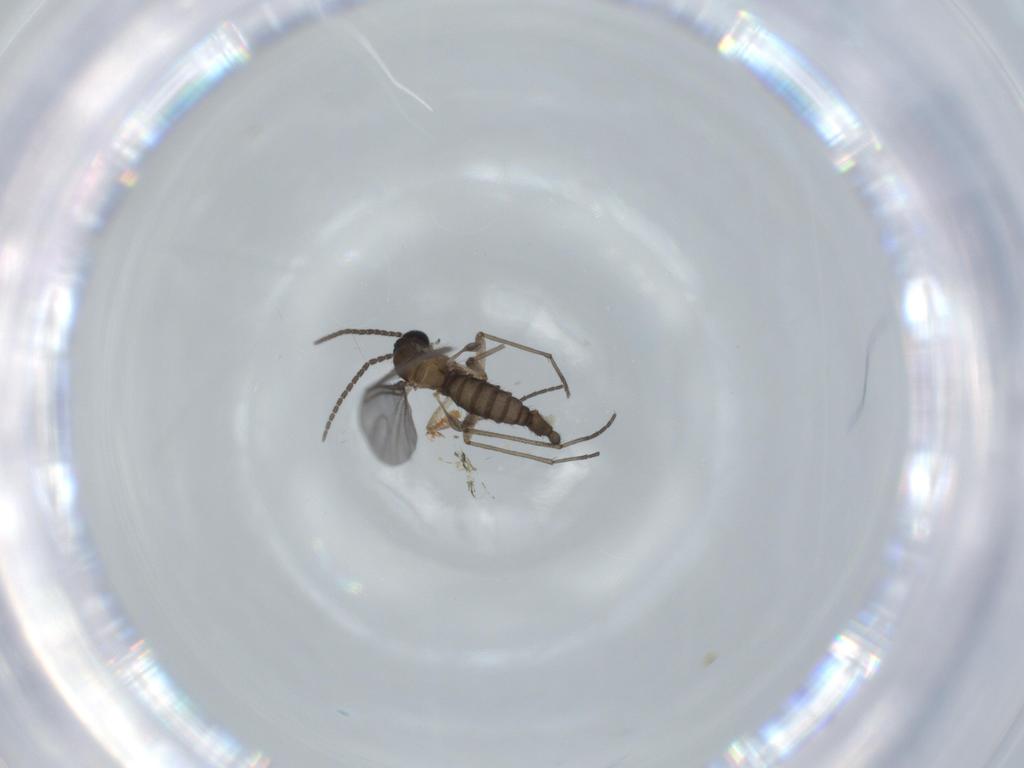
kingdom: Animalia
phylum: Arthropoda
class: Insecta
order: Diptera
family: Sciaridae
